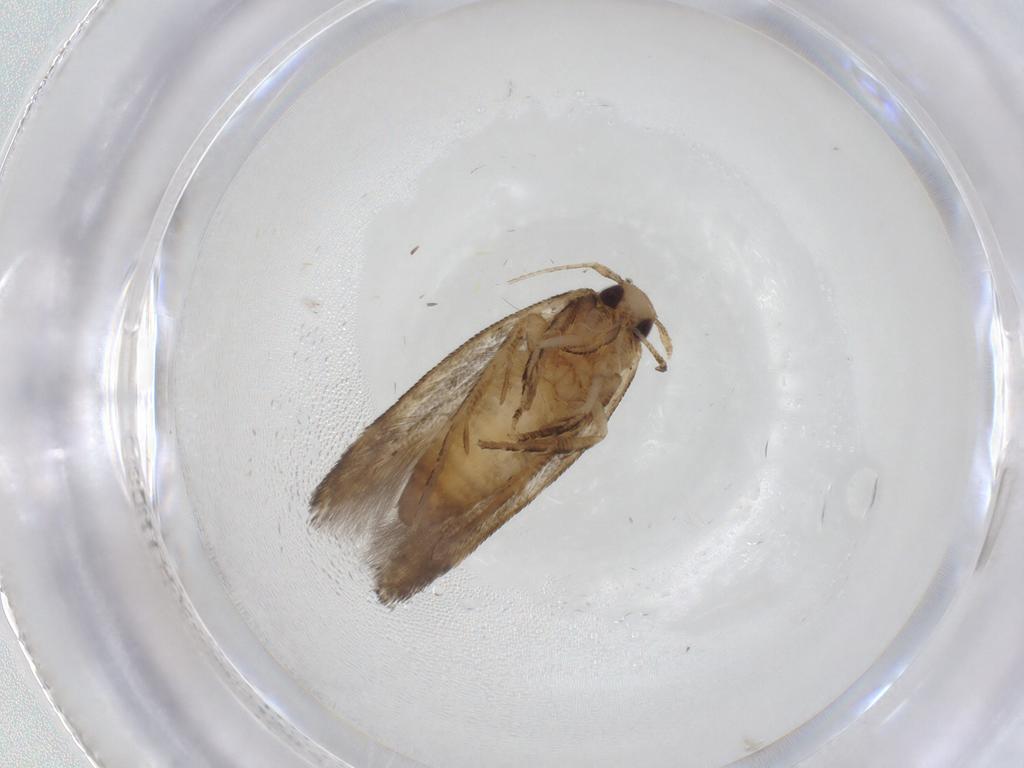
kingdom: Animalia
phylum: Arthropoda
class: Insecta
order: Lepidoptera
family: Gelechiidae
